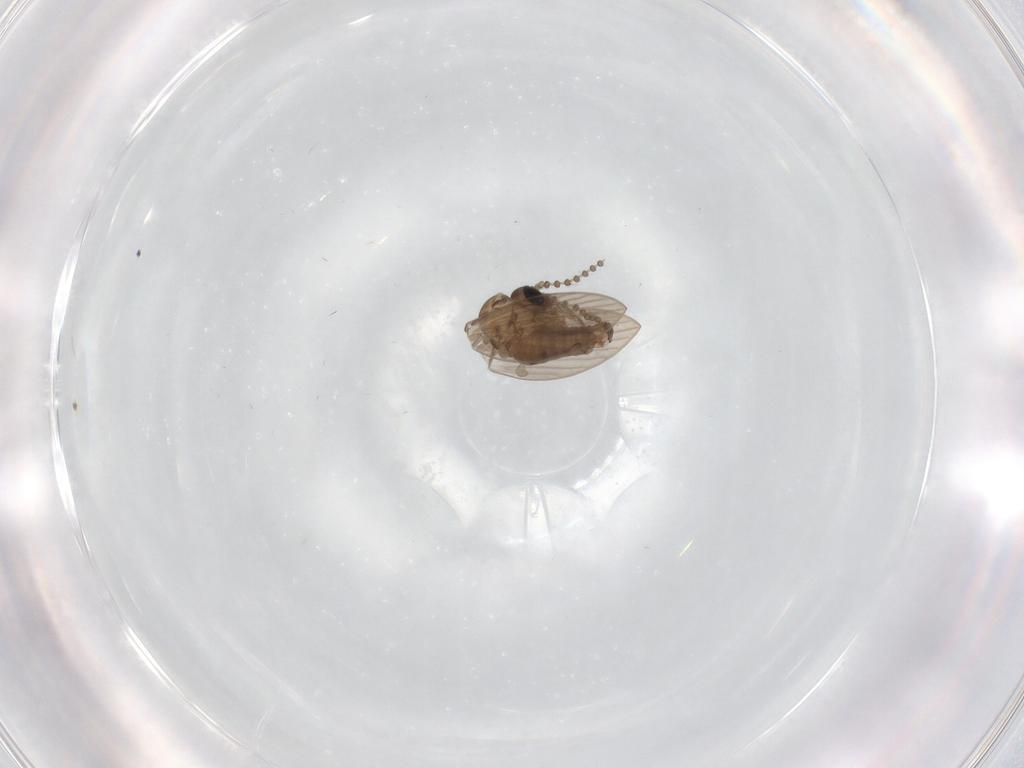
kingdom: Animalia
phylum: Arthropoda
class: Insecta
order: Diptera
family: Psychodidae
